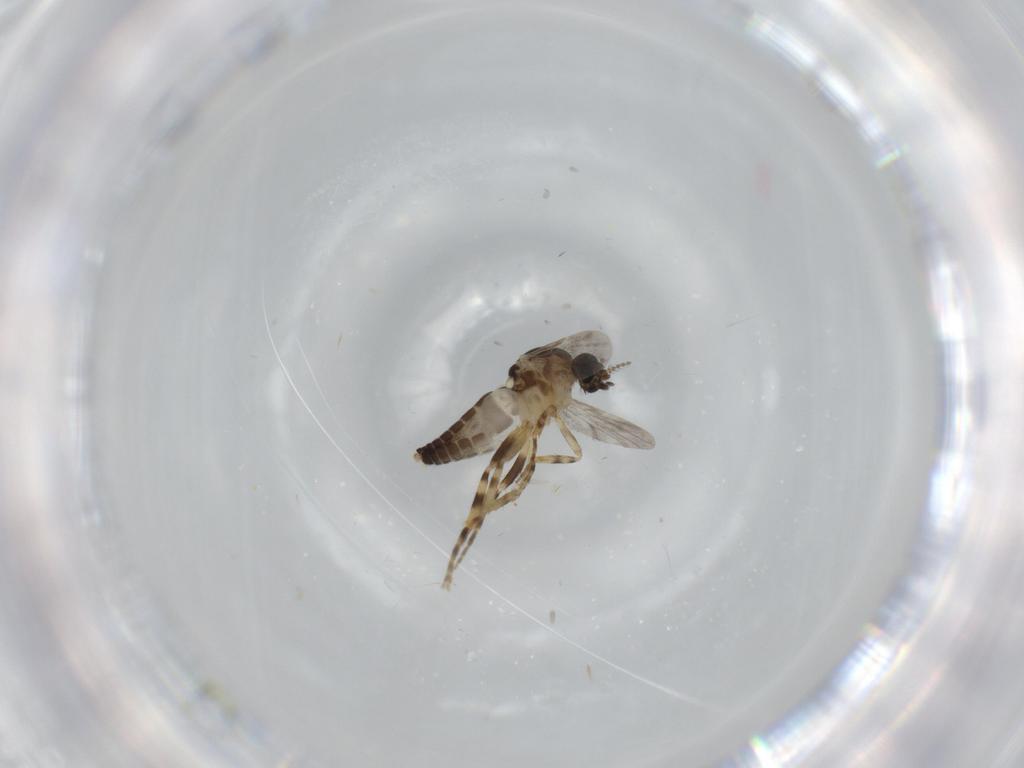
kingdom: Animalia
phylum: Arthropoda
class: Insecta
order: Diptera
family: Ceratopogonidae
